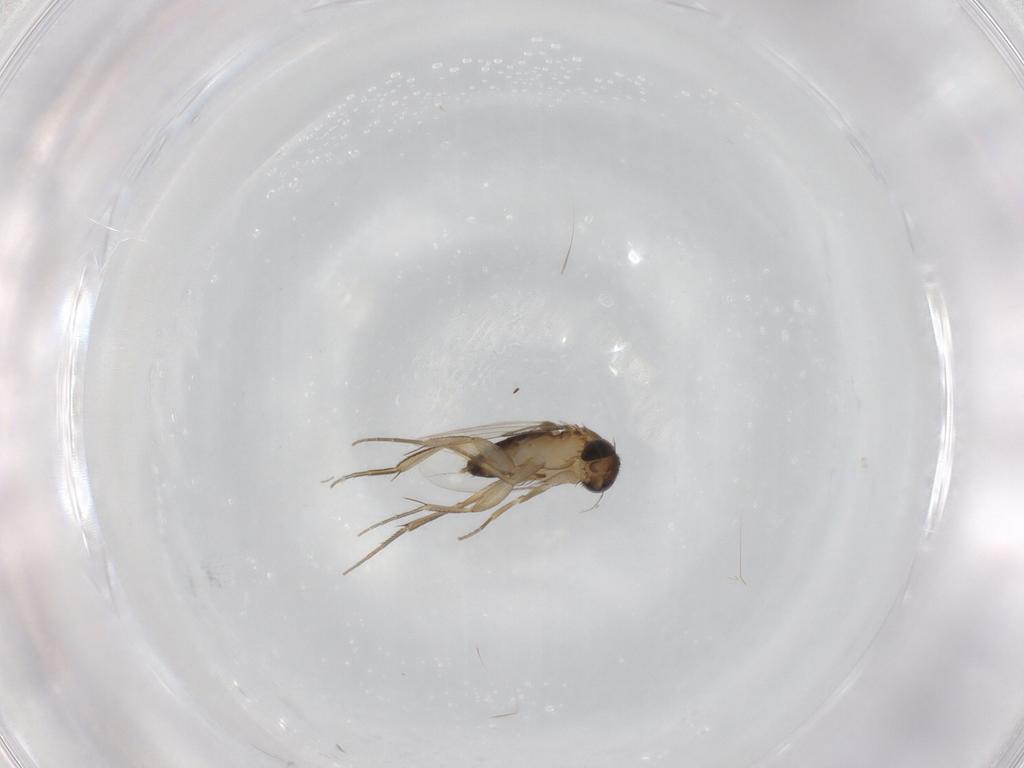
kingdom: Animalia
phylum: Arthropoda
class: Insecta
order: Diptera
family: Phoridae
